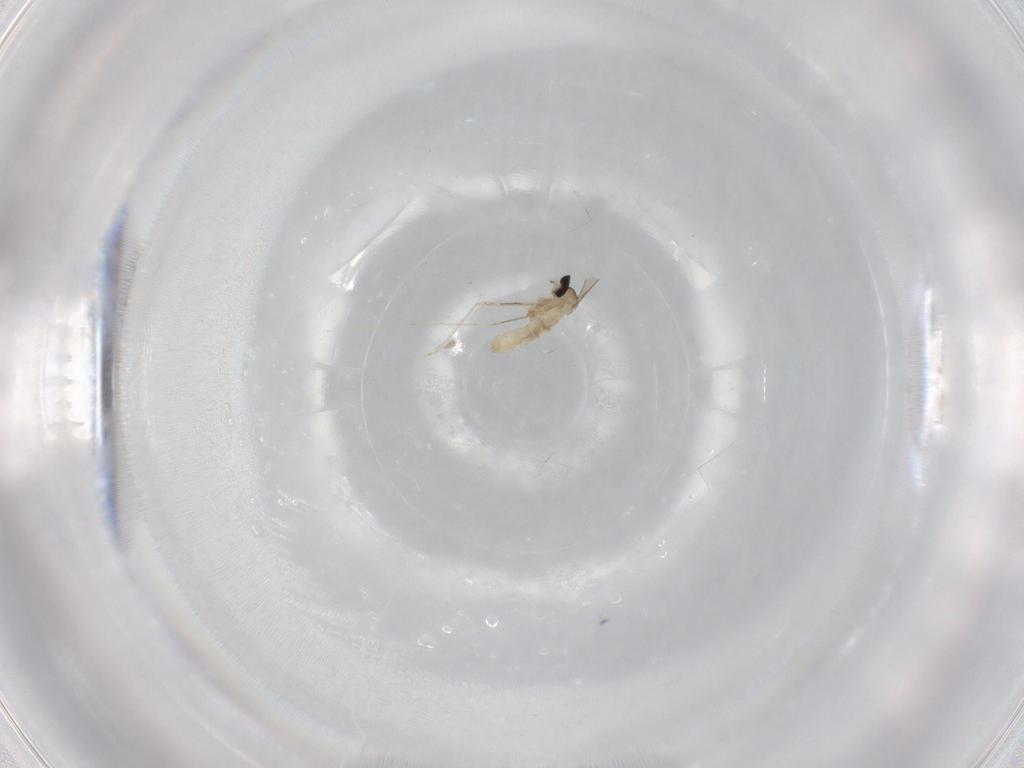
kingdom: Animalia
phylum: Arthropoda
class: Insecta
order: Diptera
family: Cecidomyiidae
